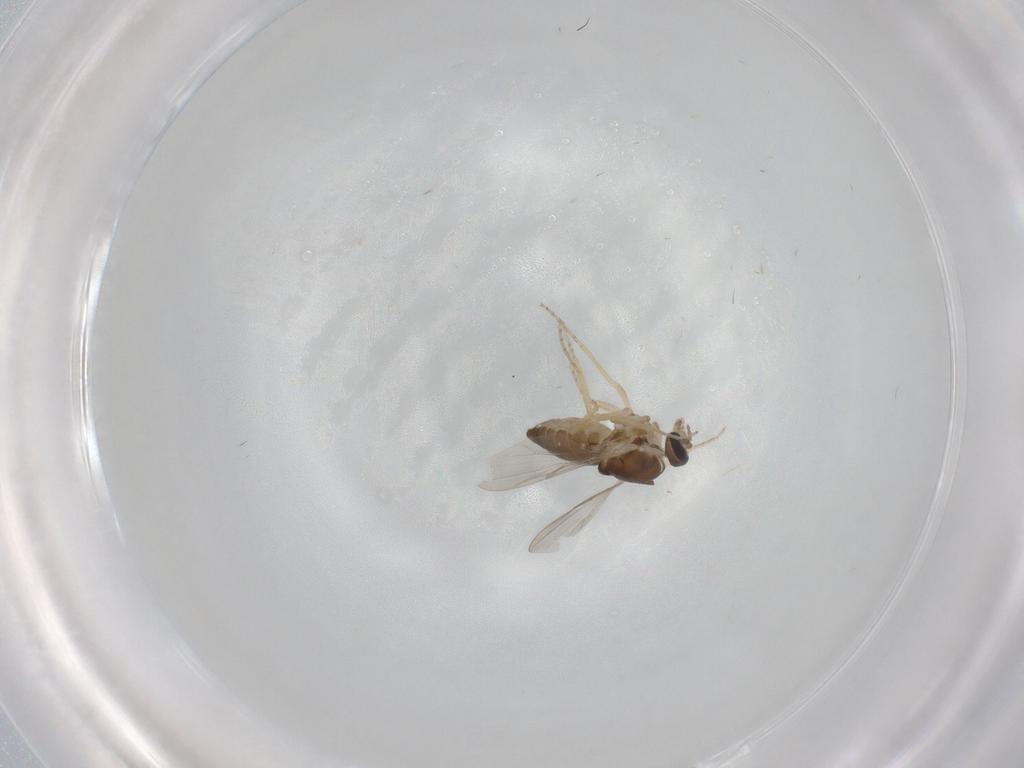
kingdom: Animalia
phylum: Arthropoda
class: Insecta
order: Diptera
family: Ceratopogonidae
